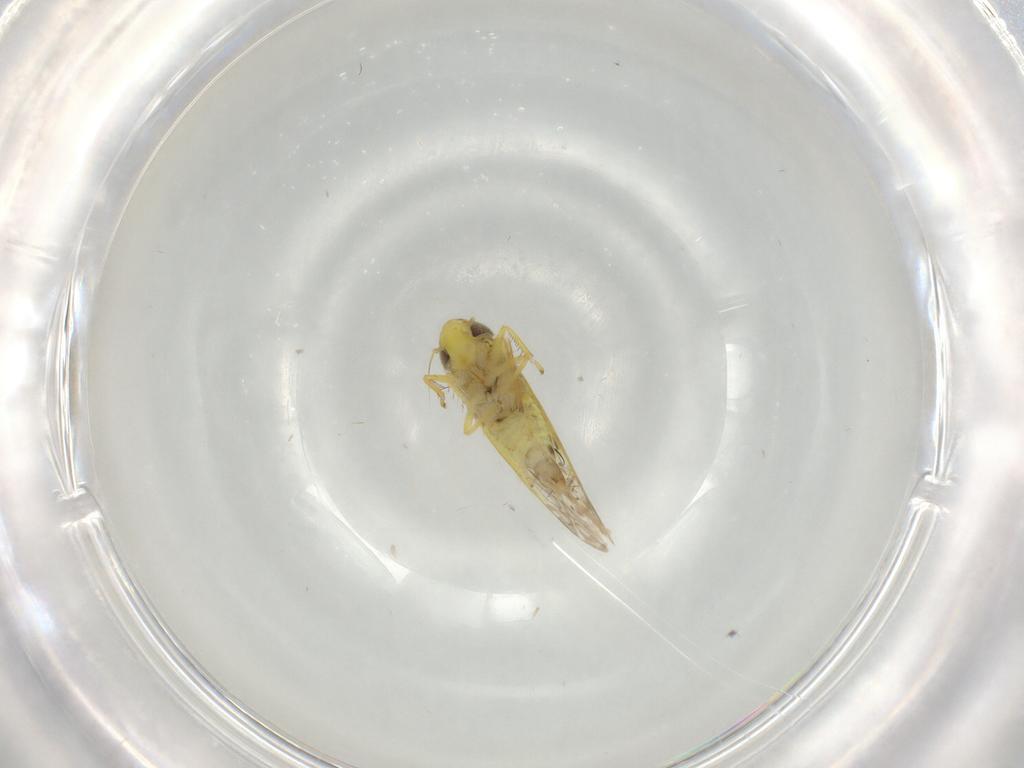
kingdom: Animalia
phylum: Arthropoda
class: Insecta
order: Hemiptera
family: Cicadellidae
